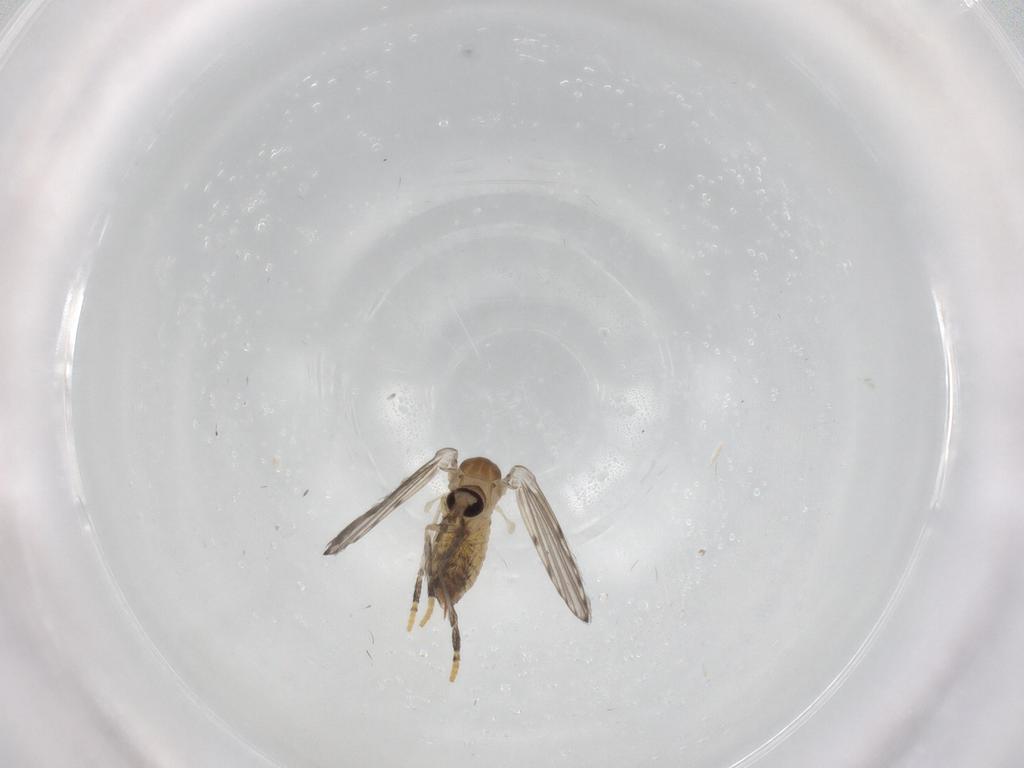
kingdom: Animalia
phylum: Arthropoda
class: Insecta
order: Diptera
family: Psychodidae
